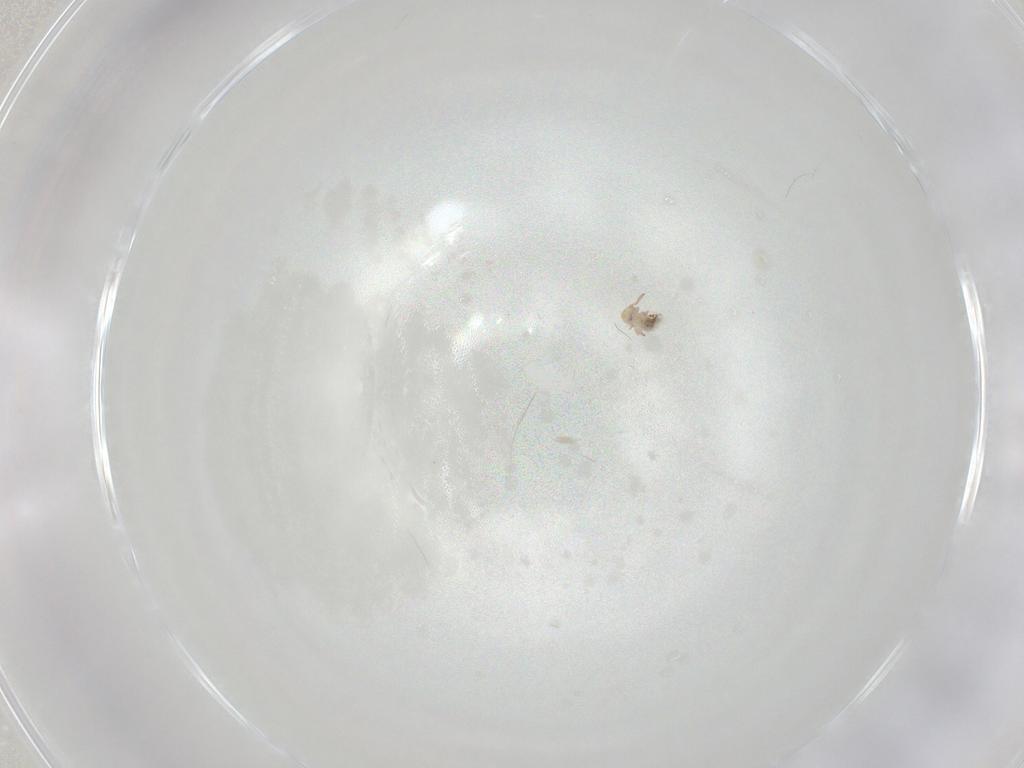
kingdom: Animalia
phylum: Arthropoda
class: Collembola
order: Symphypleona
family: Bourletiellidae
